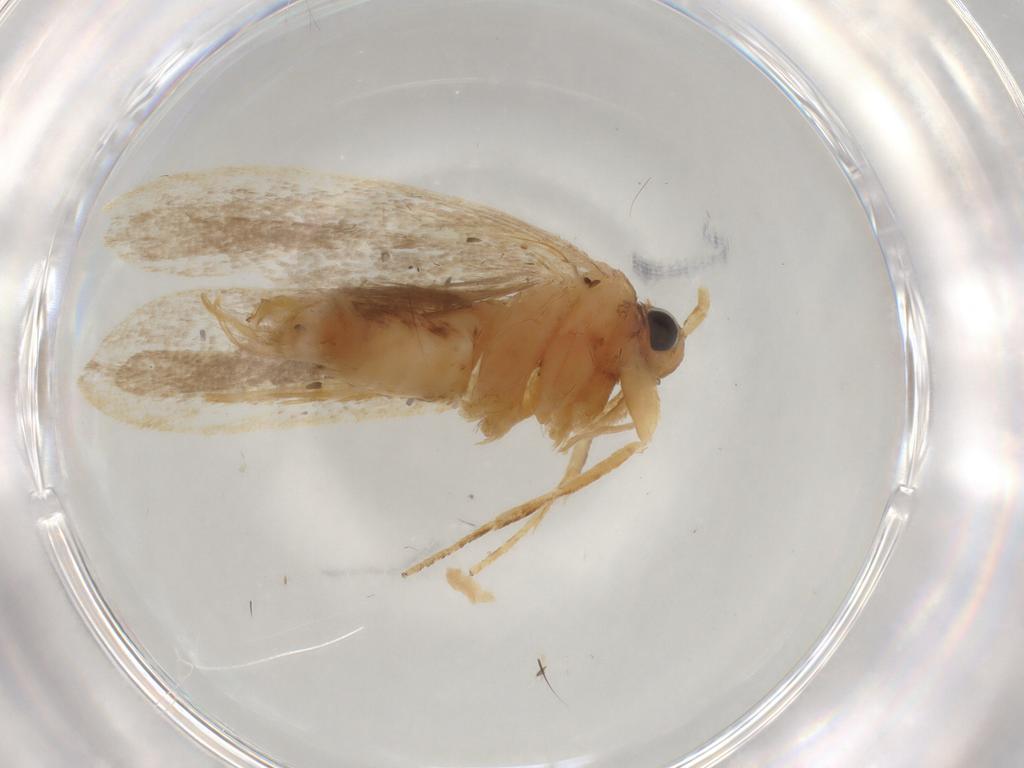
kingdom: Animalia
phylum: Arthropoda
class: Insecta
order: Lepidoptera
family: Lecithoceridae
